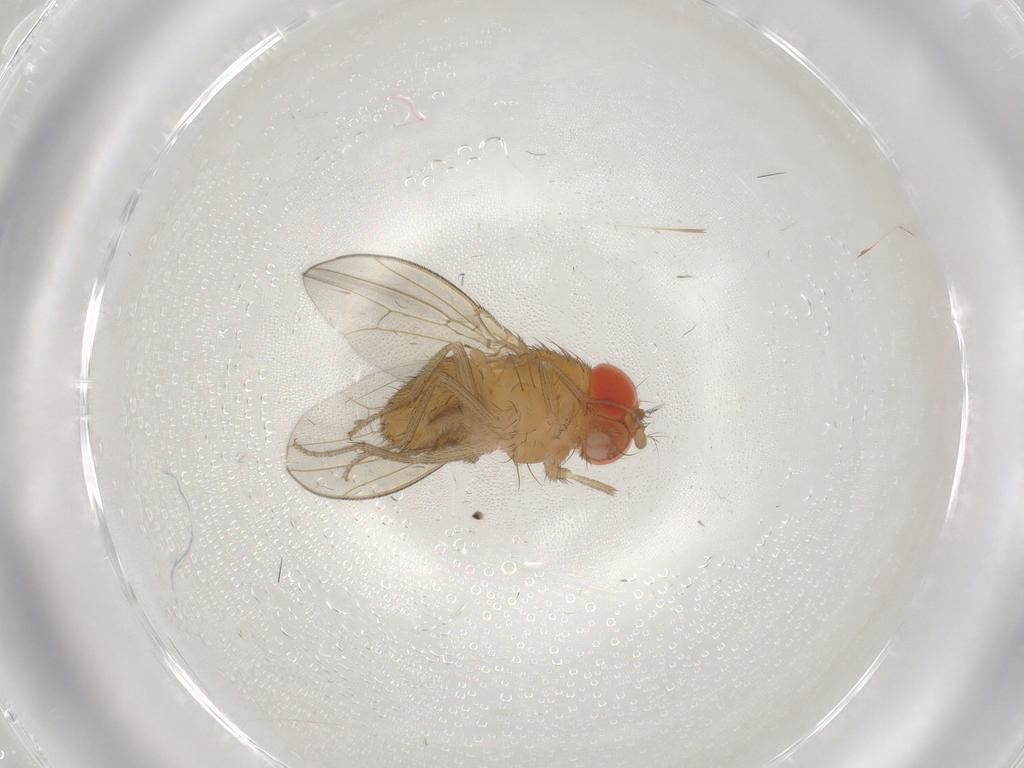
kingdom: Animalia
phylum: Arthropoda
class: Insecta
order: Diptera
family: Drosophilidae
